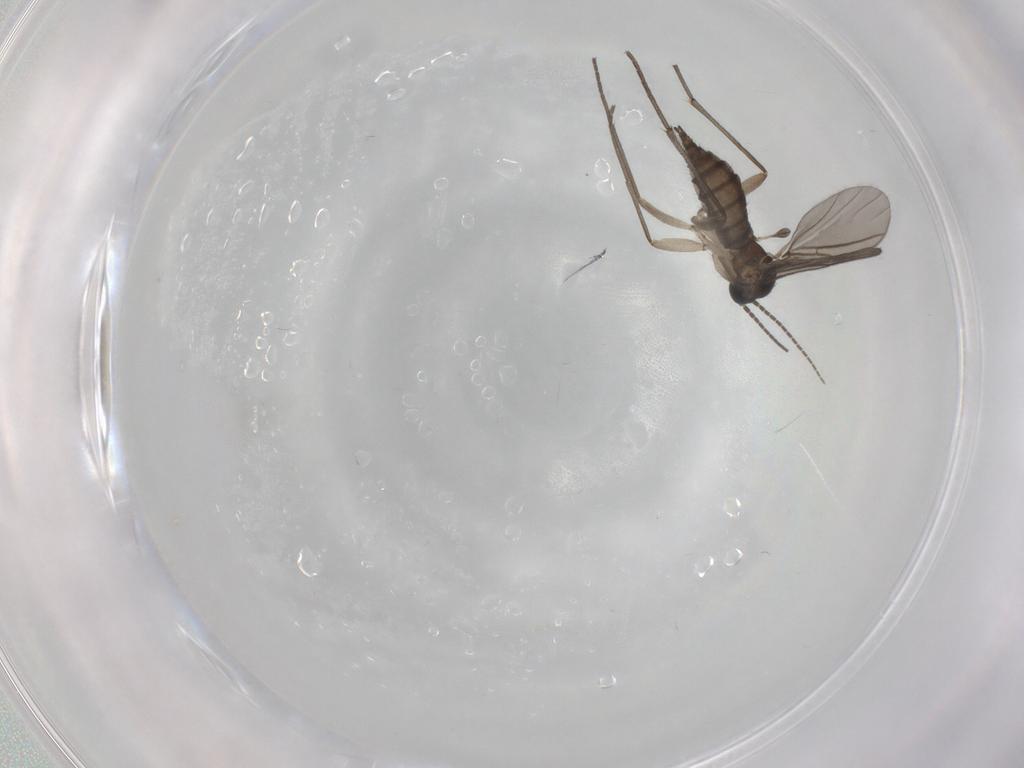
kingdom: Animalia
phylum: Arthropoda
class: Insecta
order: Diptera
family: Sciaridae
